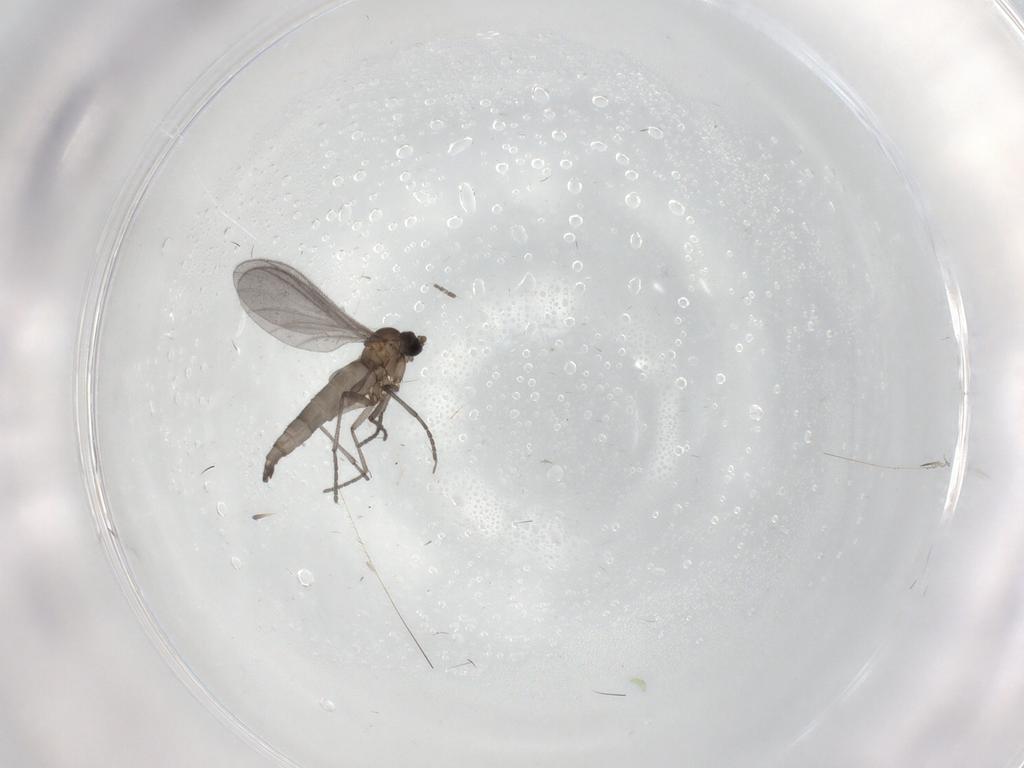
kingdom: Animalia
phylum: Arthropoda
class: Insecta
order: Diptera
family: Sciaridae
